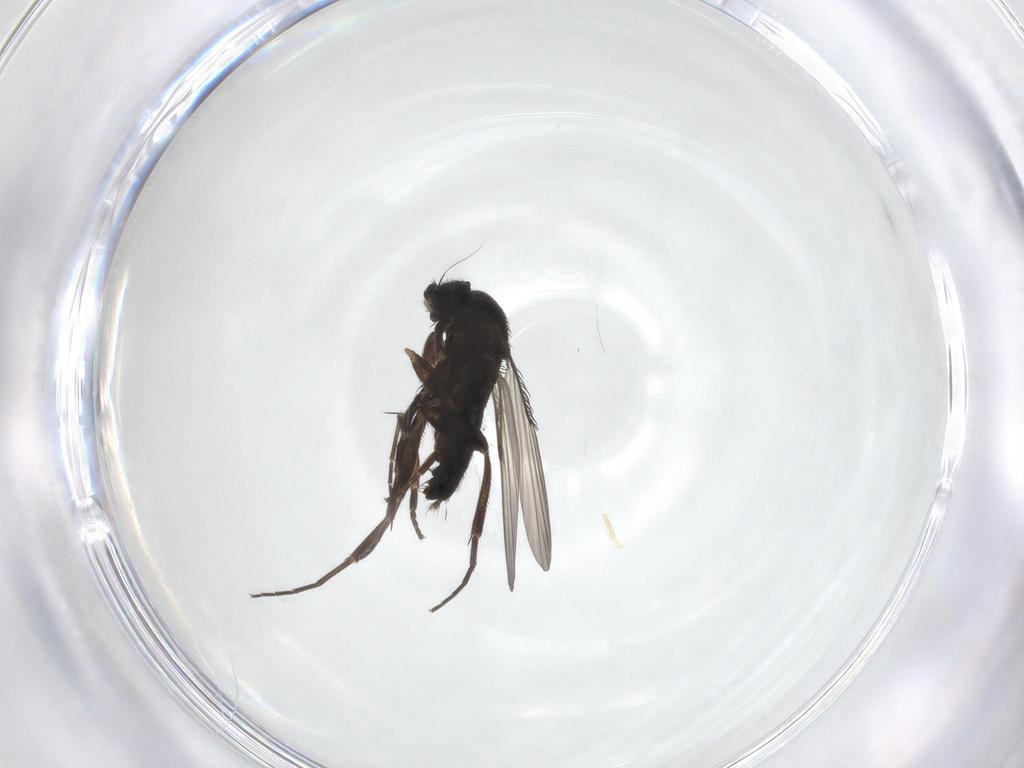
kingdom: Animalia
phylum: Arthropoda
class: Insecta
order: Diptera
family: Phoridae
